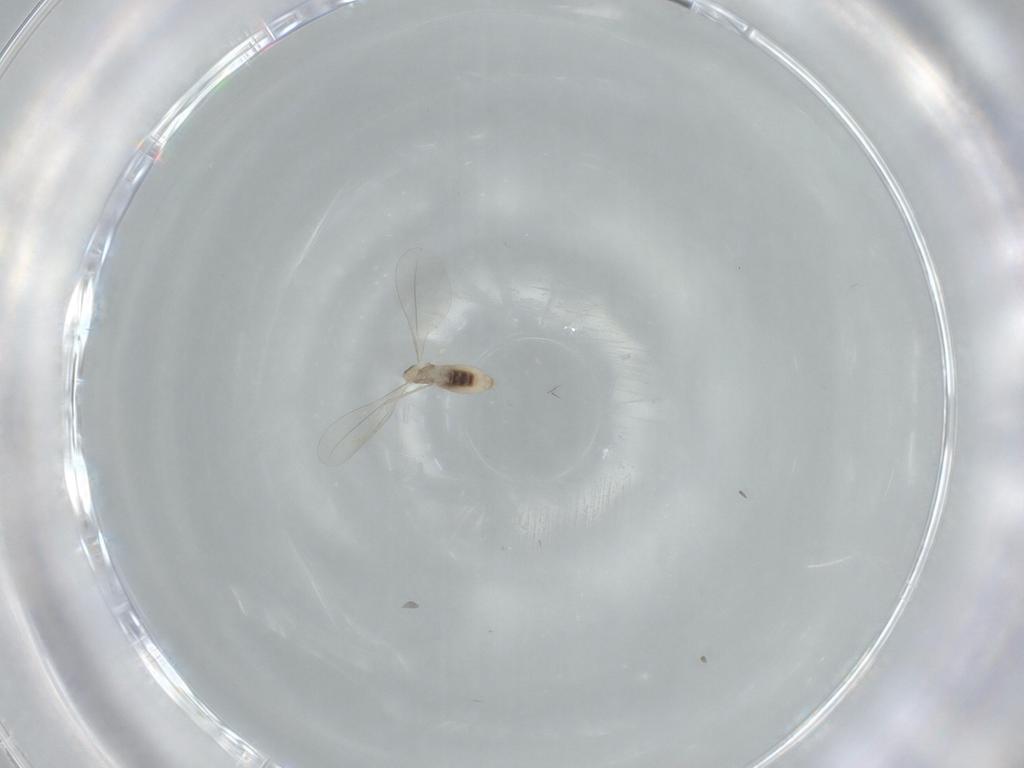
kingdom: Animalia
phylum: Arthropoda
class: Insecta
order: Diptera
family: Cecidomyiidae
